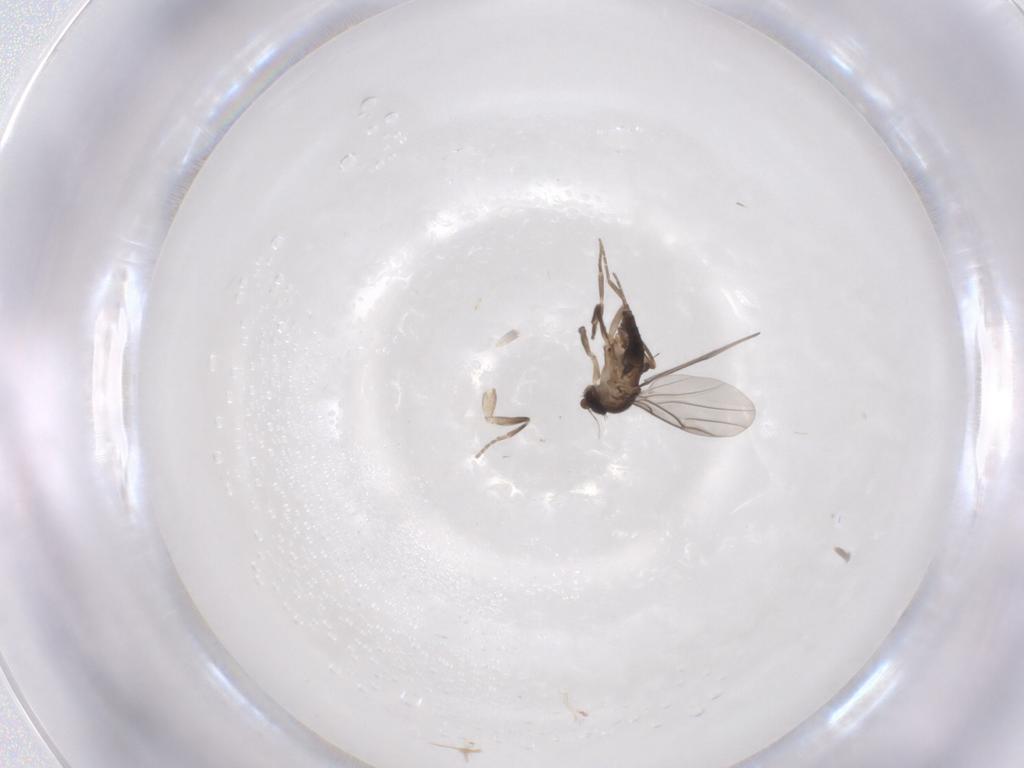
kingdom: Animalia
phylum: Arthropoda
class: Insecta
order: Diptera
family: Phoridae
